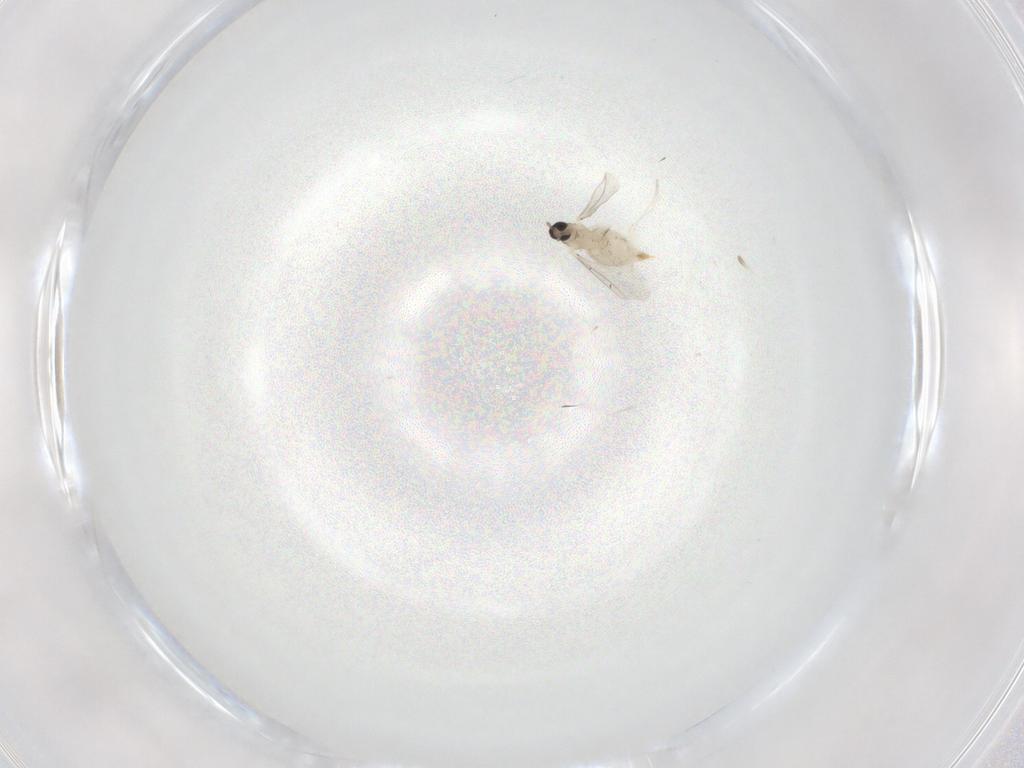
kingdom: Animalia
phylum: Arthropoda
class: Insecta
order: Diptera
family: Cecidomyiidae
